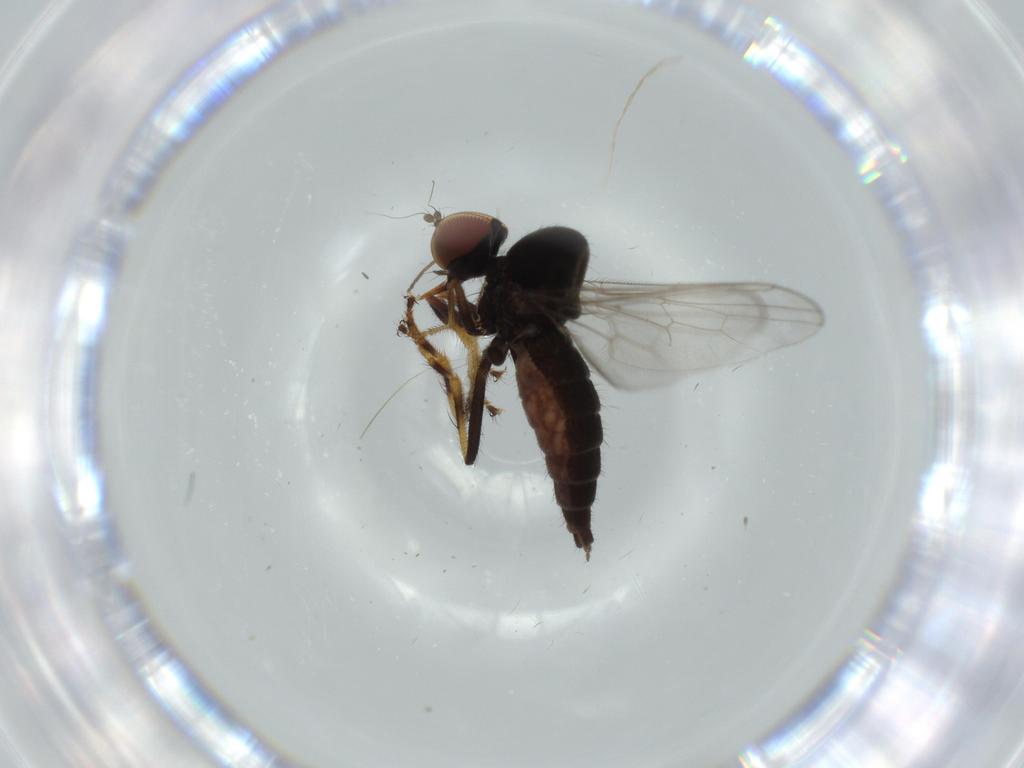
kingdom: Animalia
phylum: Arthropoda
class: Insecta
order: Diptera
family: Hybotidae
